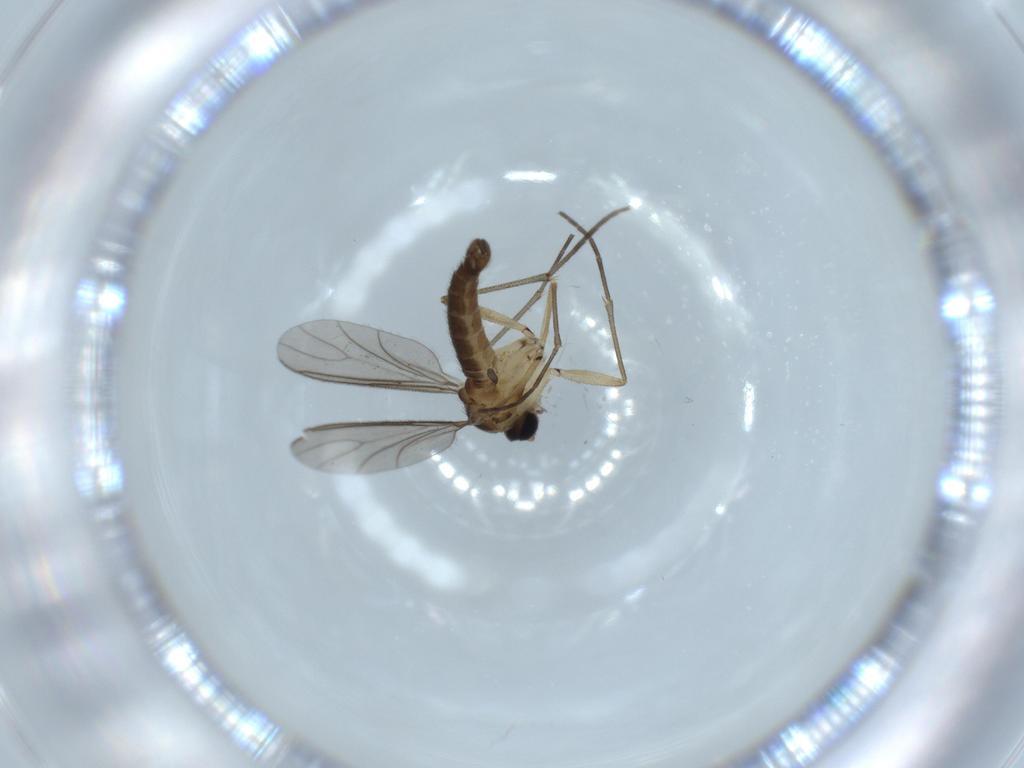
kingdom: Animalia
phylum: Arthropoda
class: Insecta
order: Diptera
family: Sciaridae
